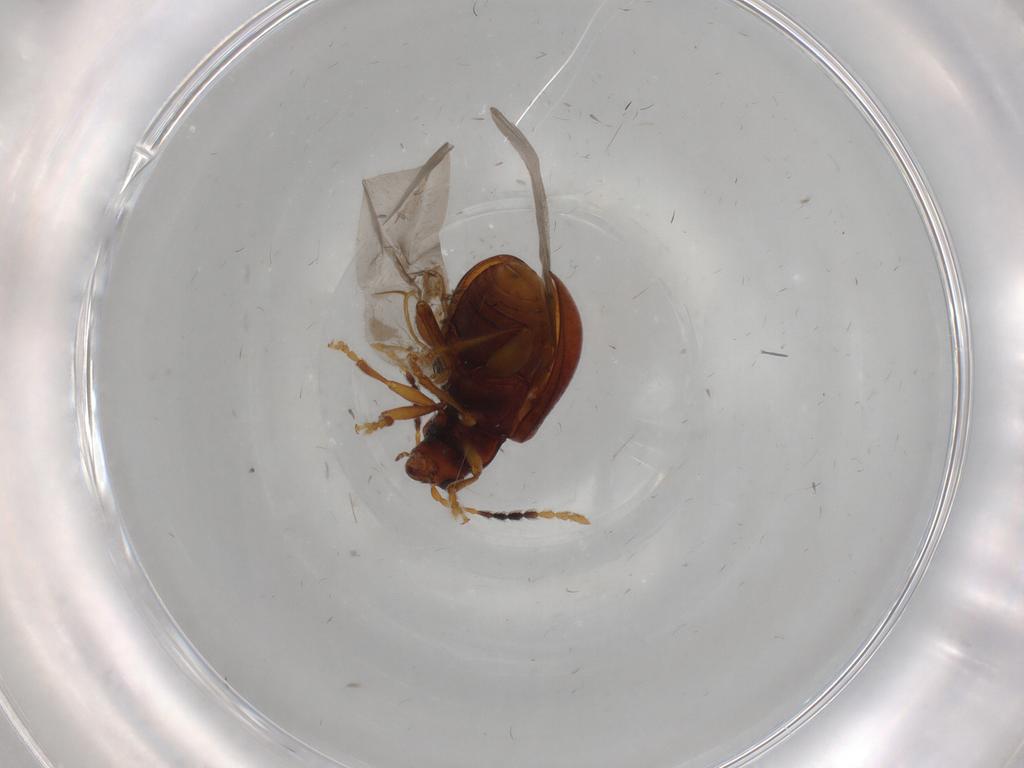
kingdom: Animalia
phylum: Arthropoda
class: Insecta
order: Coleoptera
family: Chrysomelidae
